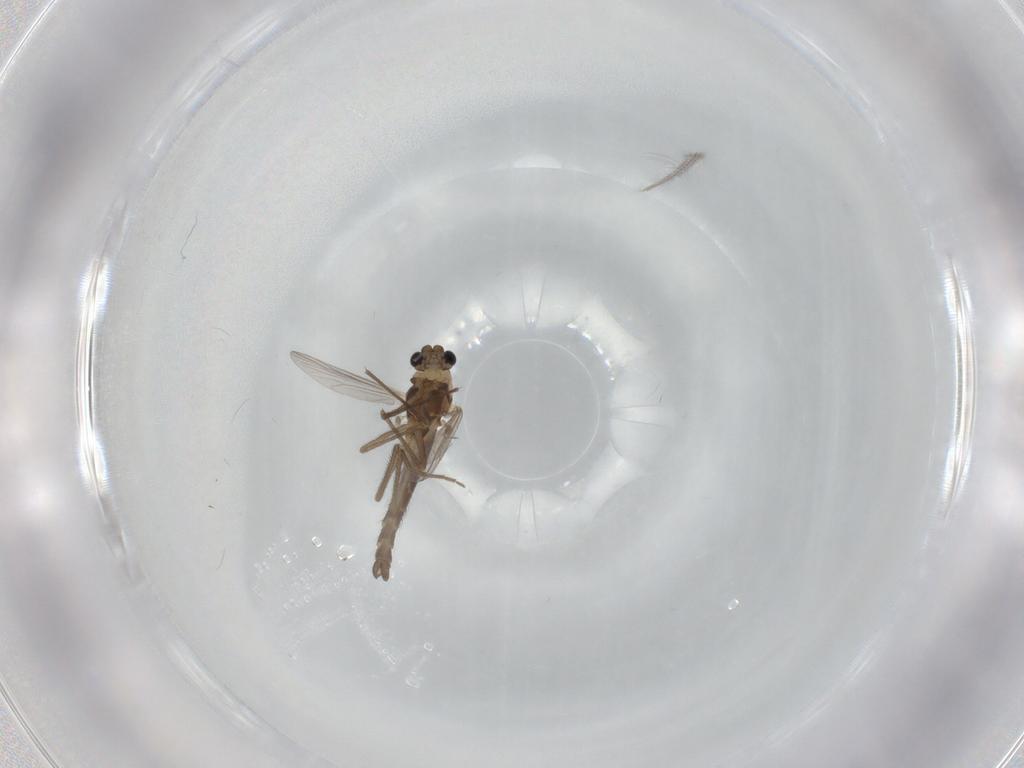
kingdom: Animalia
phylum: Arthropoda
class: Insecta
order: Diptera
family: Chironomidae
